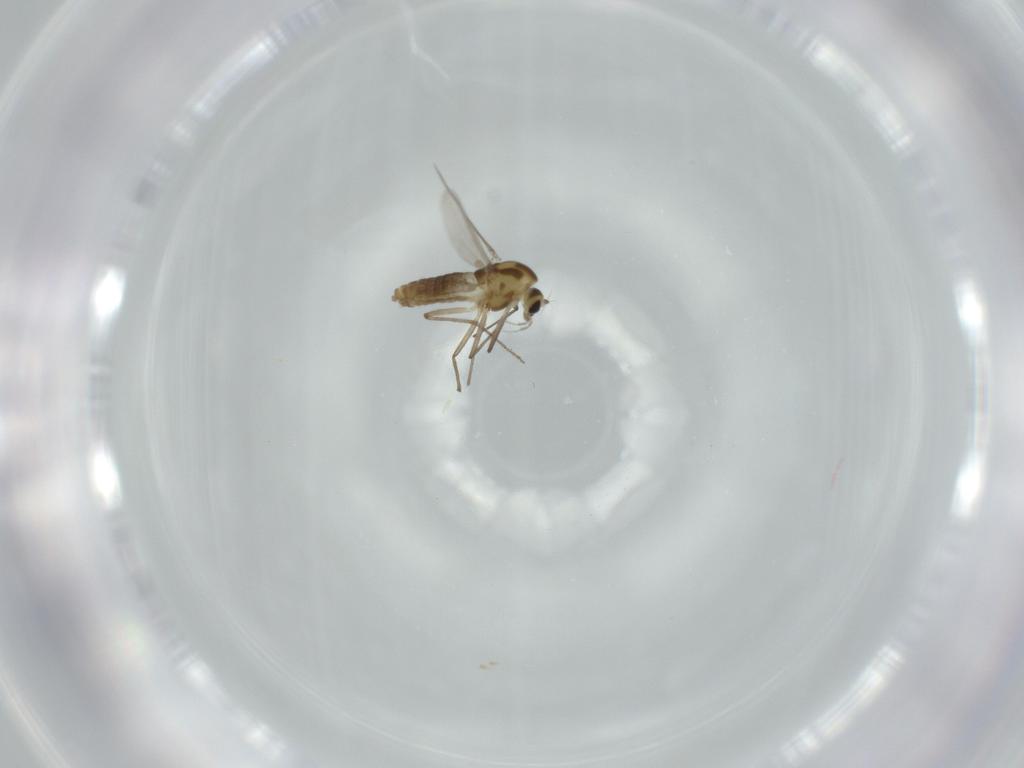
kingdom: Animalia
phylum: Arthropoda
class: Insecta
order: Diptera
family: Chironomidae
